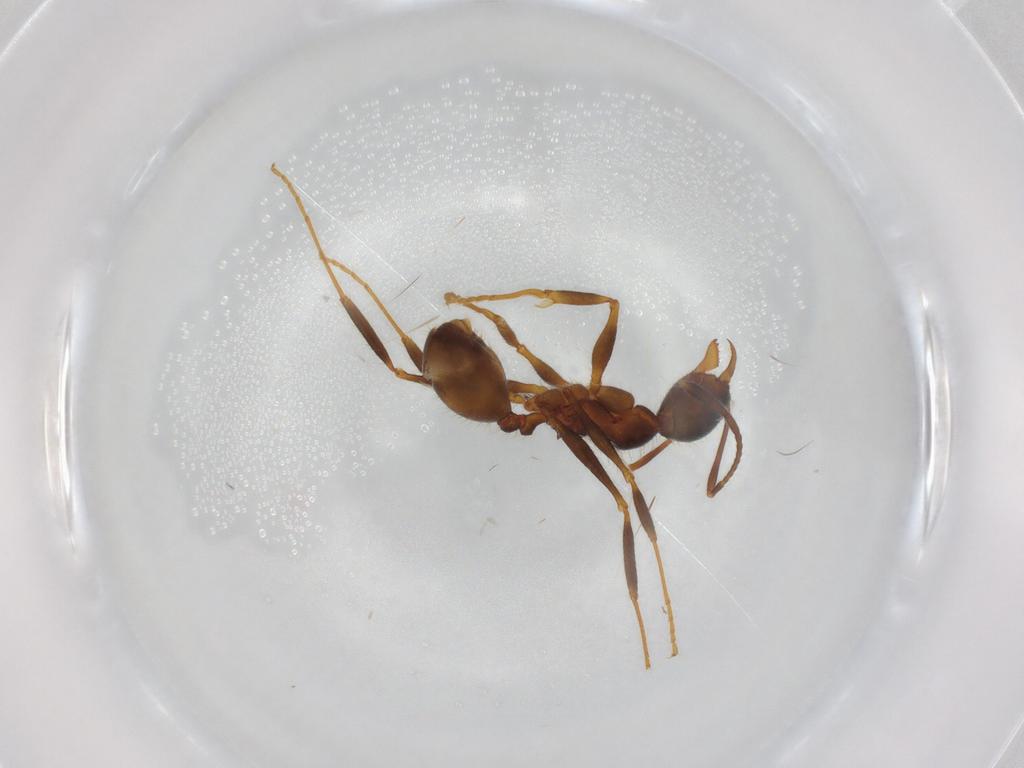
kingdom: Animalia
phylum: Arthropoda
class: Insecta
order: Hymenoptera
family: Formicidae
